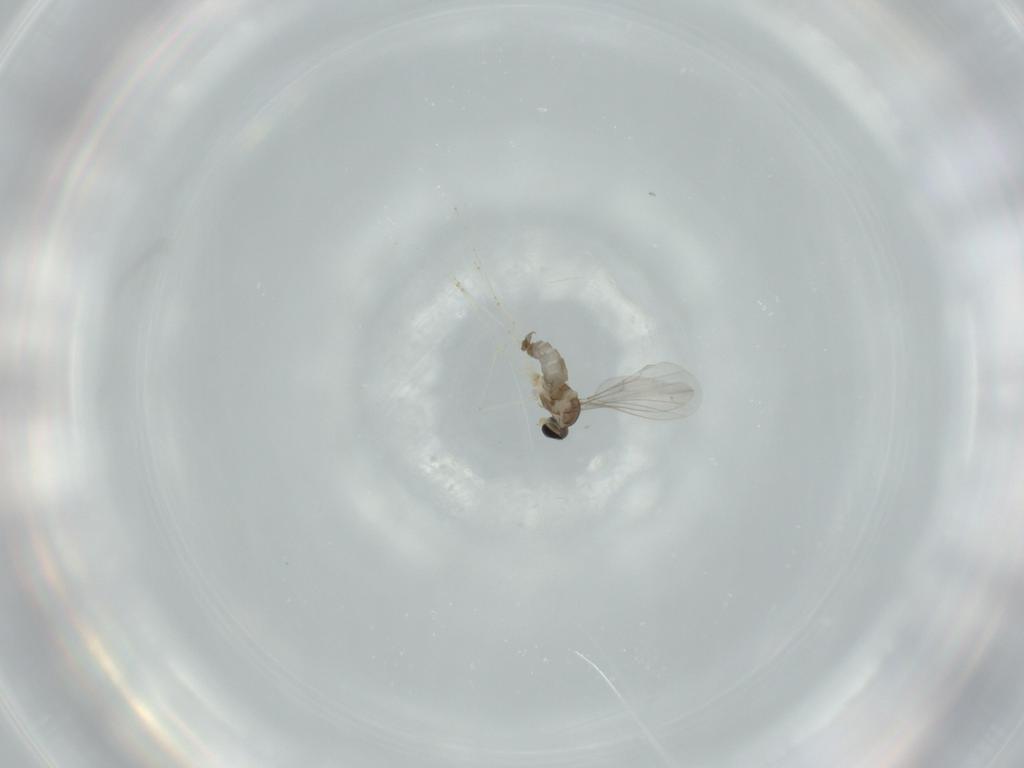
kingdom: Animalia
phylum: Arthropoda
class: Insecta
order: Diptera
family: Cecidomyiidae
